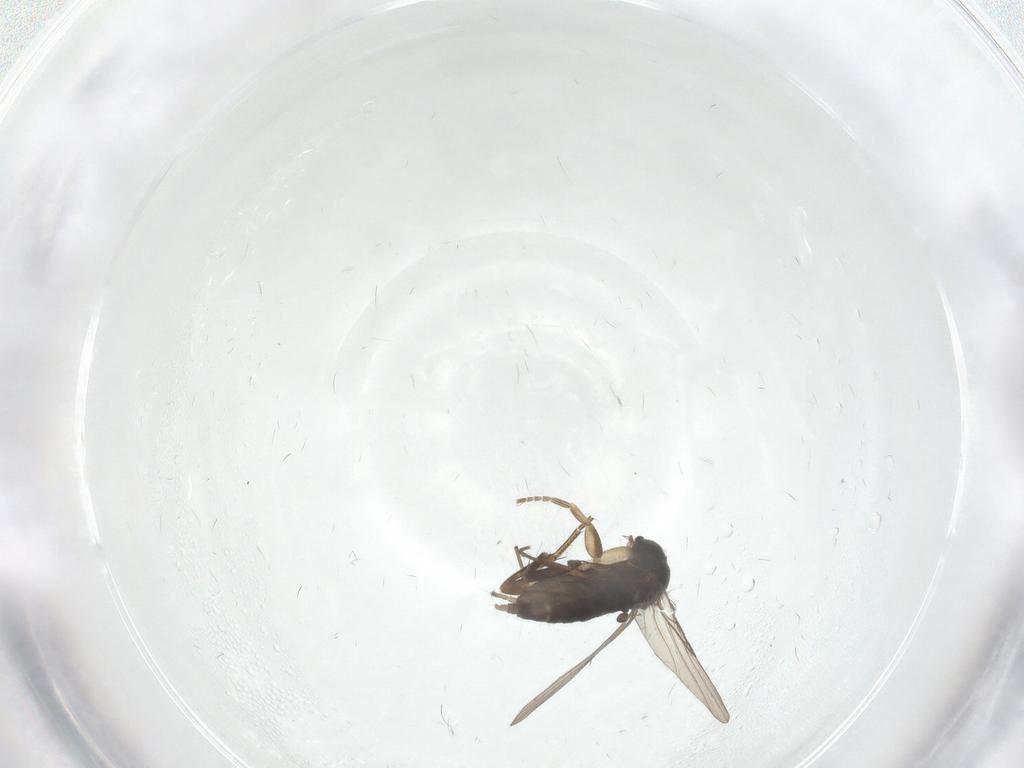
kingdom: Animalia
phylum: Arthropoda
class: Insecta
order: Diptera
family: Phoridae
